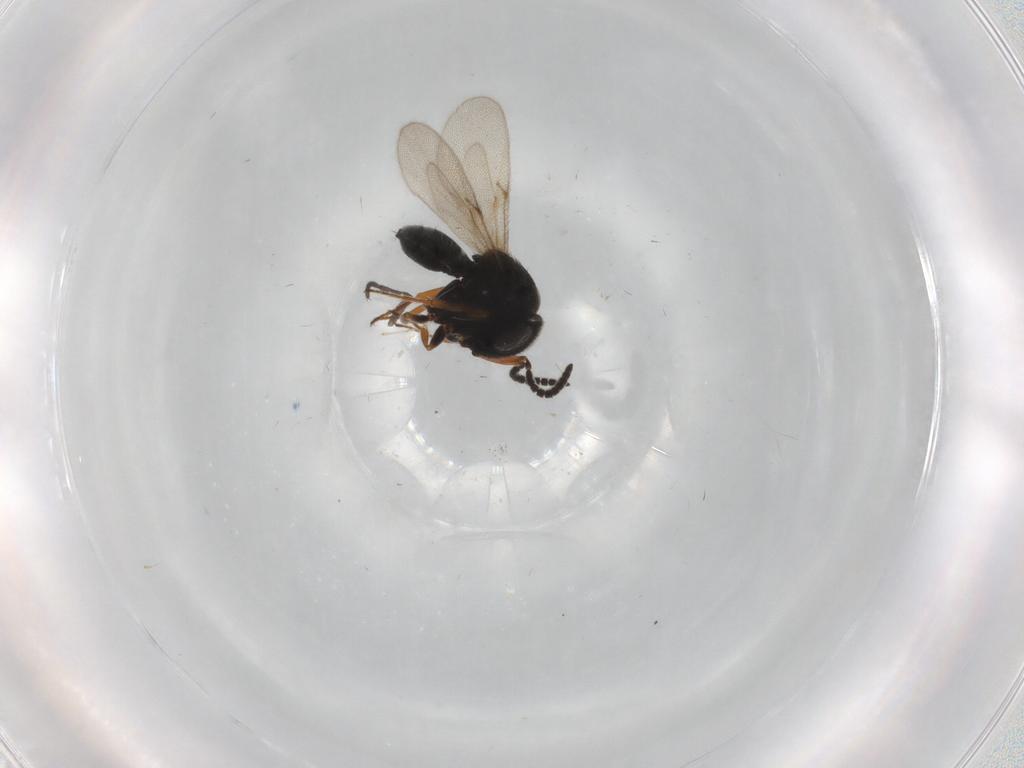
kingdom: Animalia
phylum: Arthropoda
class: Insecta
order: Hymenoptera
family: Scelionidae
